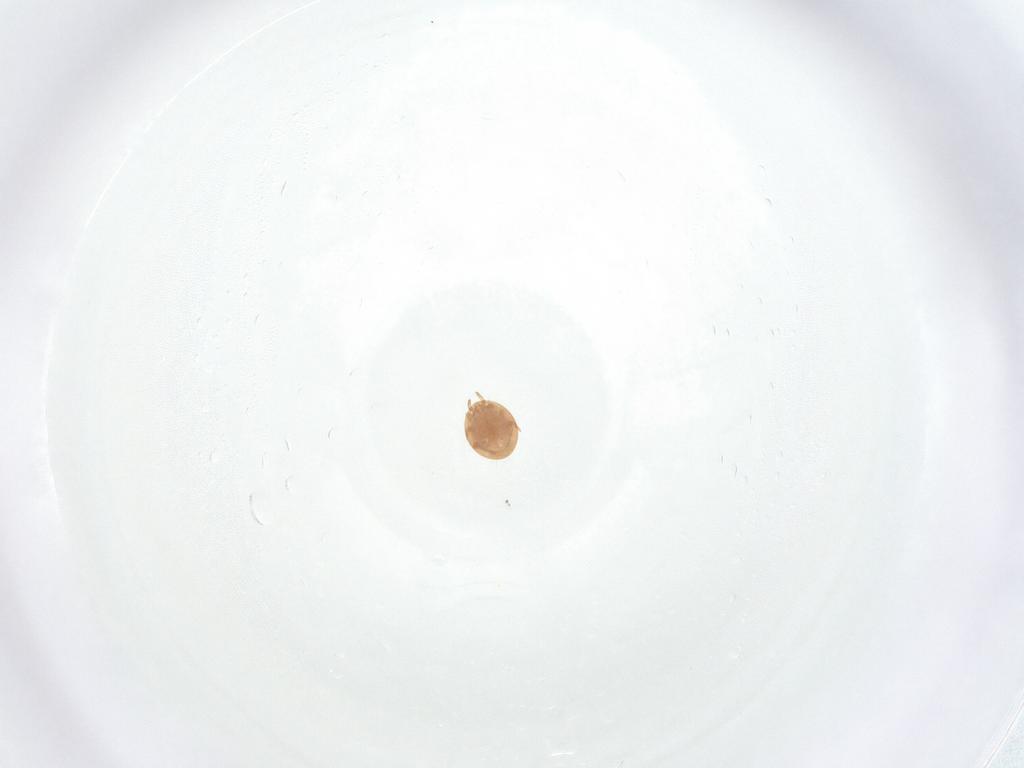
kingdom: Animalia
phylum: Arthropoda
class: Arachnida
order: Mesostigmata
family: Trematuridae
